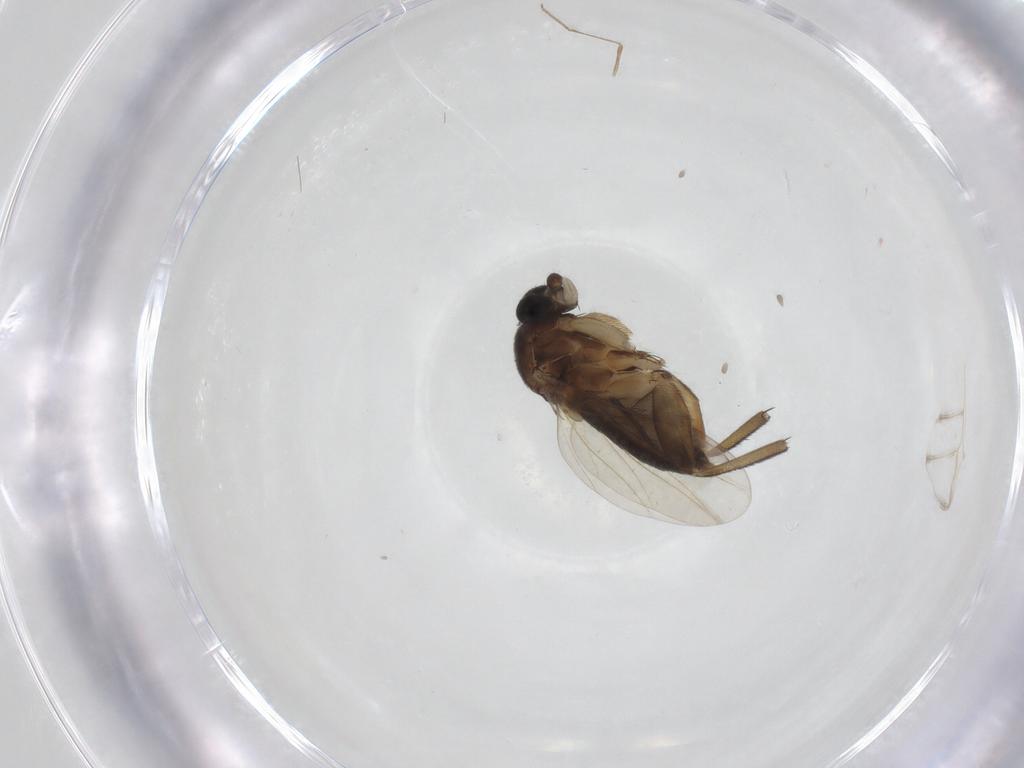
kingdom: Animalia
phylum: Arthropoda
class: Insecta
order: Diptera
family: Phoridae
